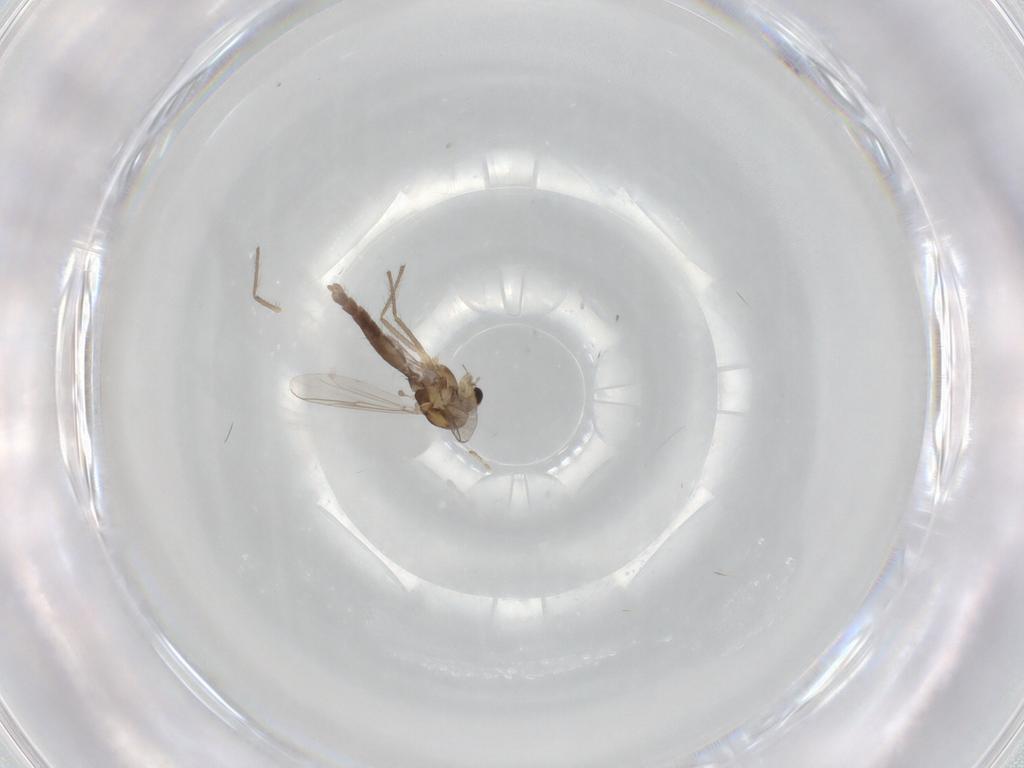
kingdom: Animalia
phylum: Arthropoda
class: Insecta
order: Diptera
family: Chironomidae
